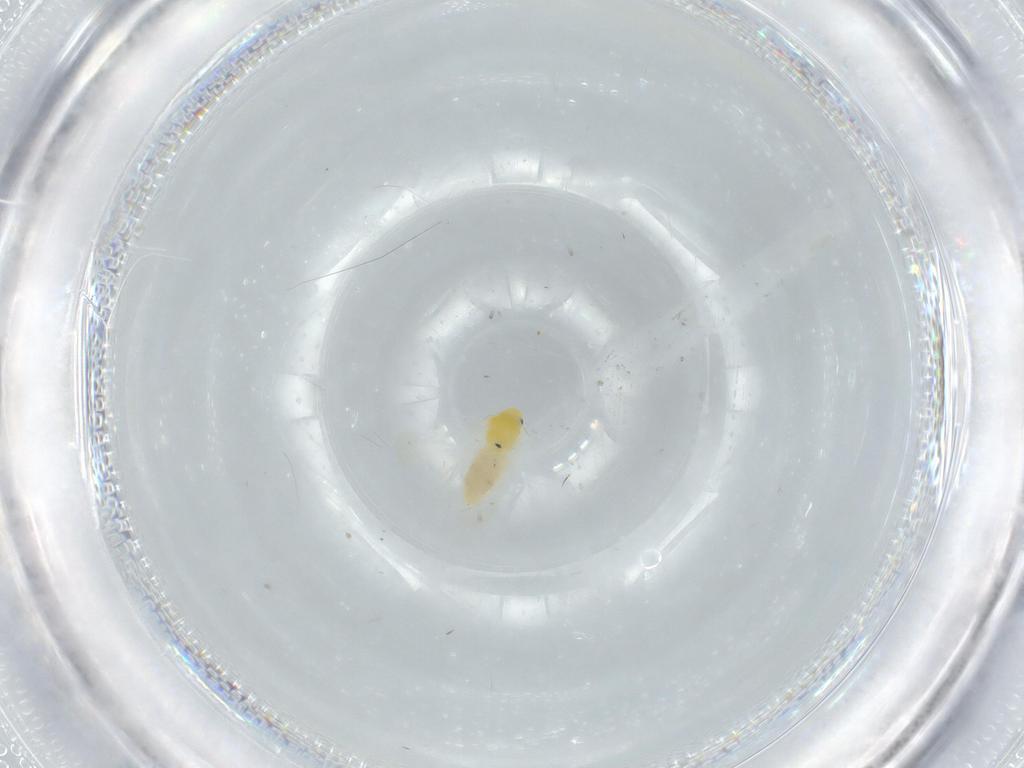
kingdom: Animalia
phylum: Arthropoda
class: Insecta
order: Hemiptera
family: Aleyrodidae
